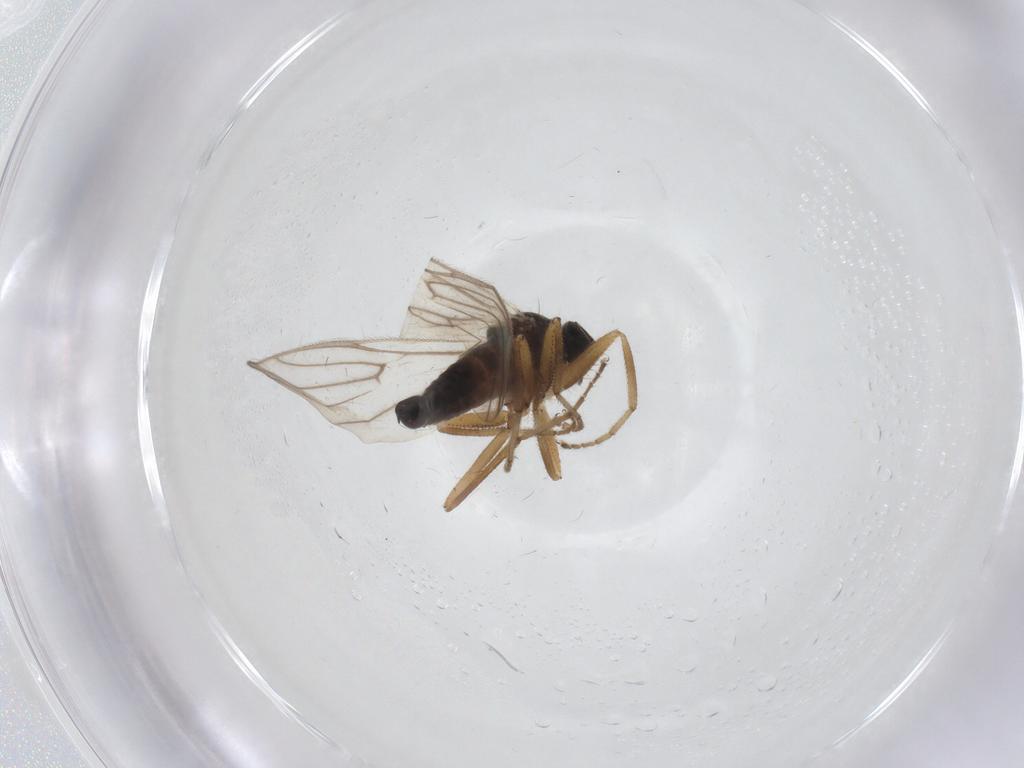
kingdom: Animalia
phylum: Arthropoda
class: Insecta
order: Diptera
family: Hybotidae
